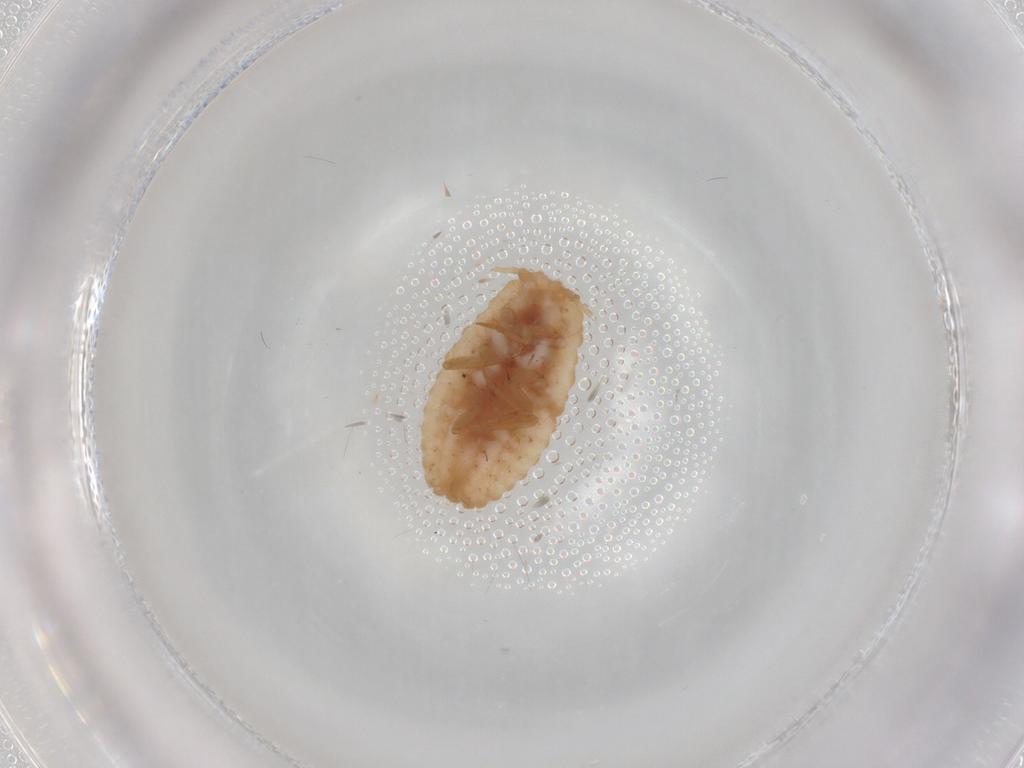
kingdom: Animalia
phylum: Arthropoda
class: Insecta
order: Hemiptera
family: Coccoidea_incertae_sedis
